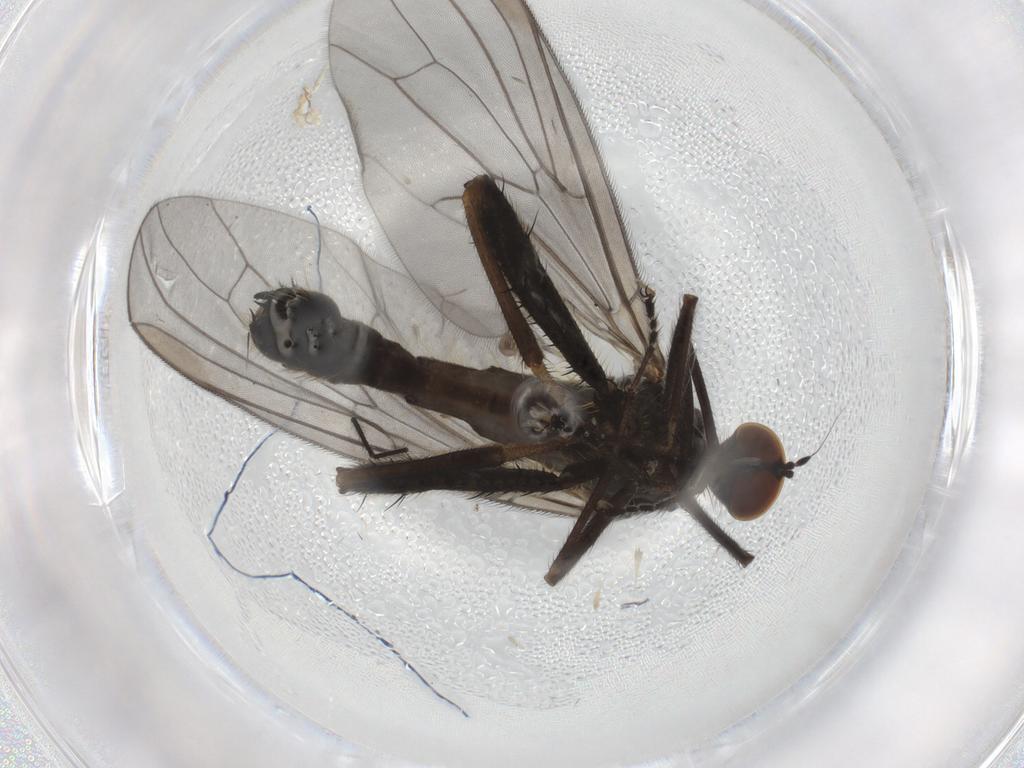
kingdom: Animalia
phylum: Arthropoda
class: Insecta
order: Diptera
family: Hybotidae
